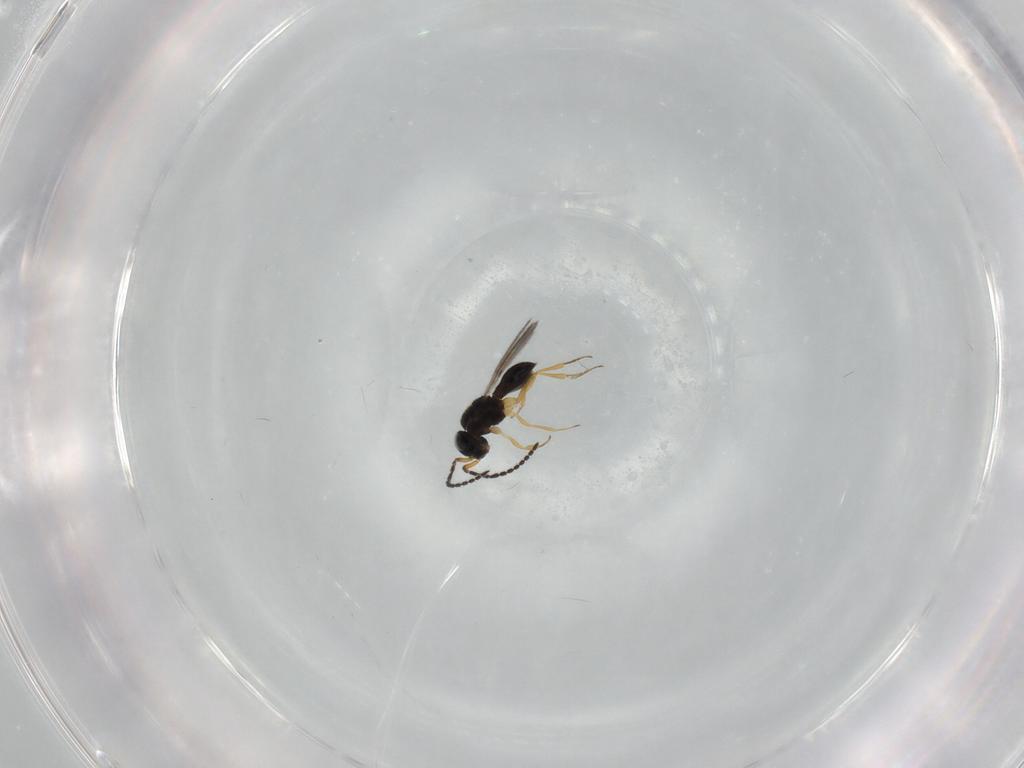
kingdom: Animalia
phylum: Arthropoda
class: Insecta
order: Hymenoptera
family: Scelionidae
